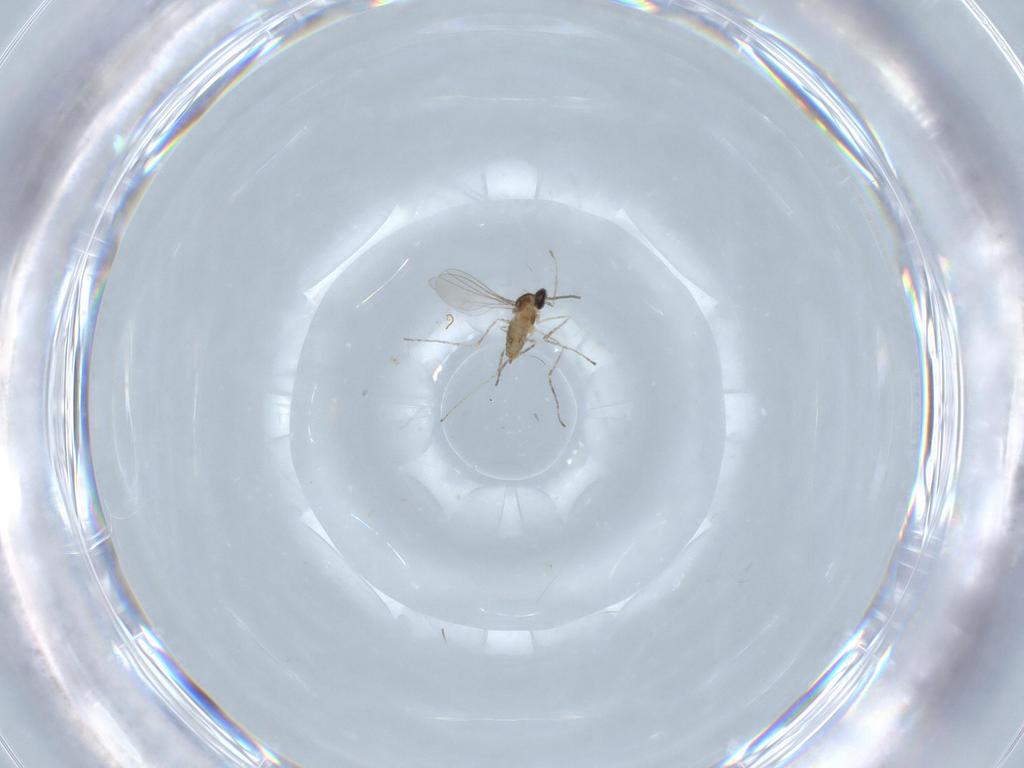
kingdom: Animalia
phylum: Arthropoda
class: Insecta
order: Diptera
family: Cecidomyiidae
